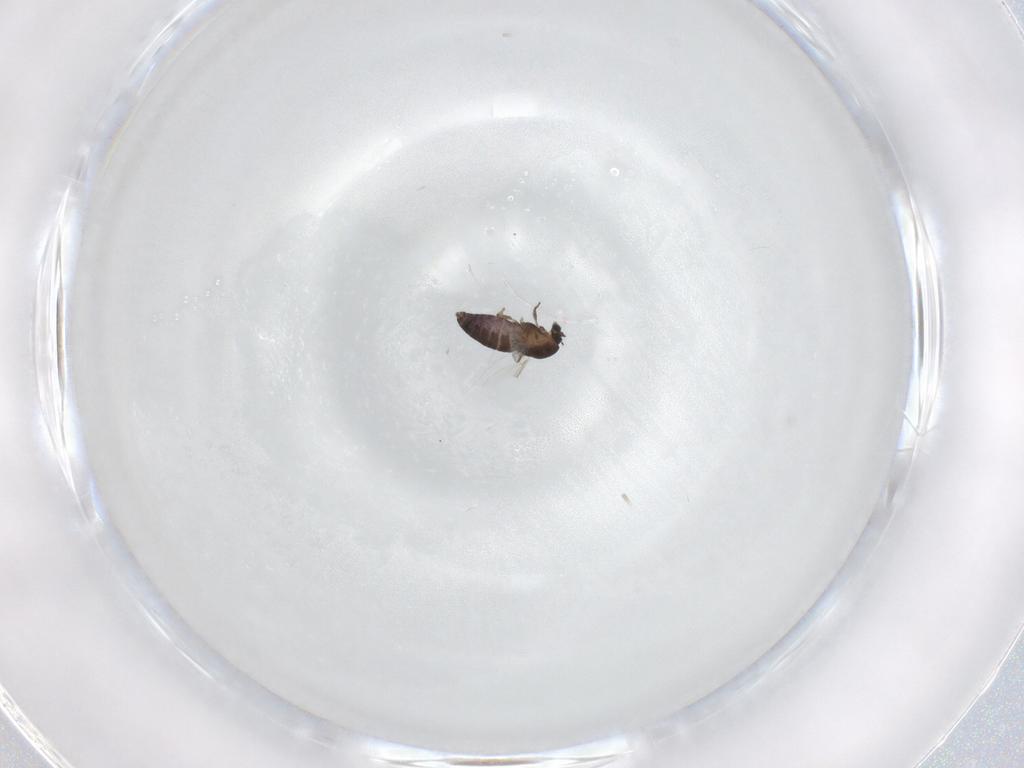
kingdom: Animalia
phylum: Arthropoda
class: Insecta
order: Diptera
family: Chironomidae
